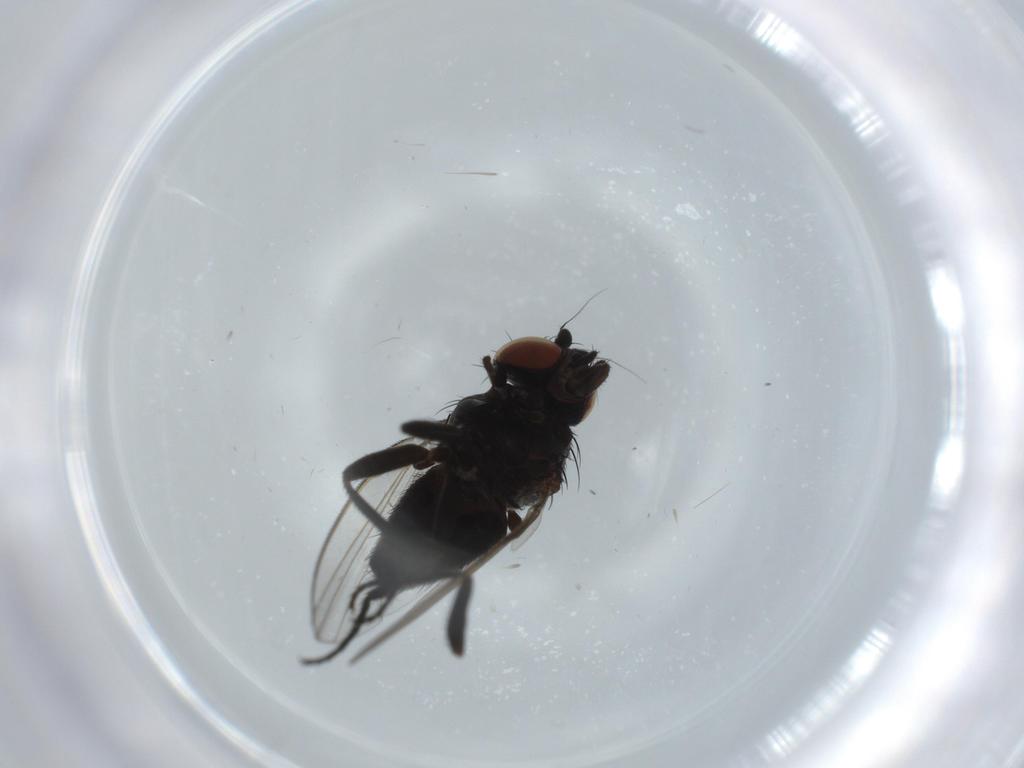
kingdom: Animalia
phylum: Arthropoda
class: Insecta
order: Diptera
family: Milichiidae
